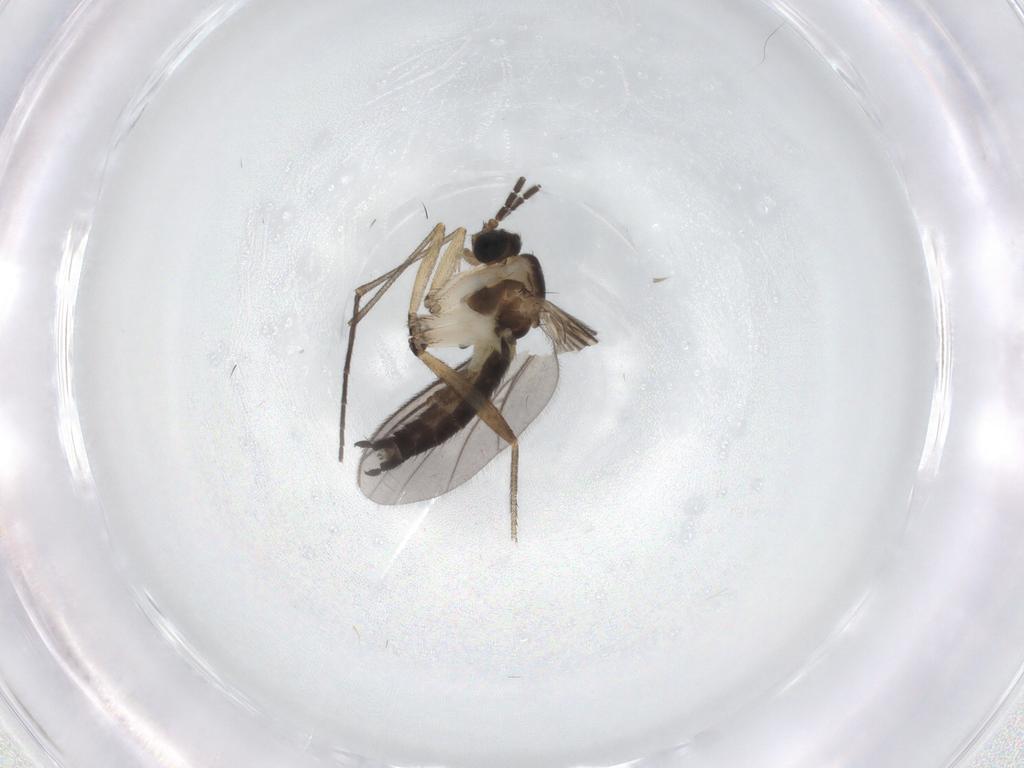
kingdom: Animalia
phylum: Arthropoda
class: Insecta
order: Diptera
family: Sciaridae
